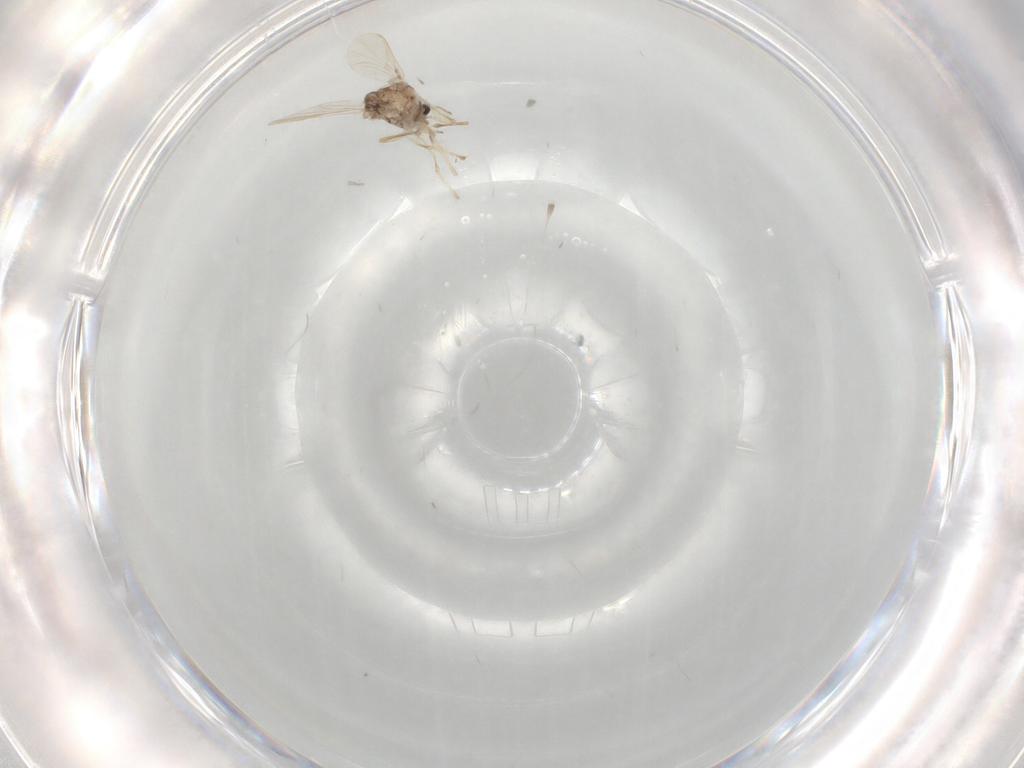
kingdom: Animalia
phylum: Arthropoda
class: Insecta
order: Diptera
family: Chironomidae
